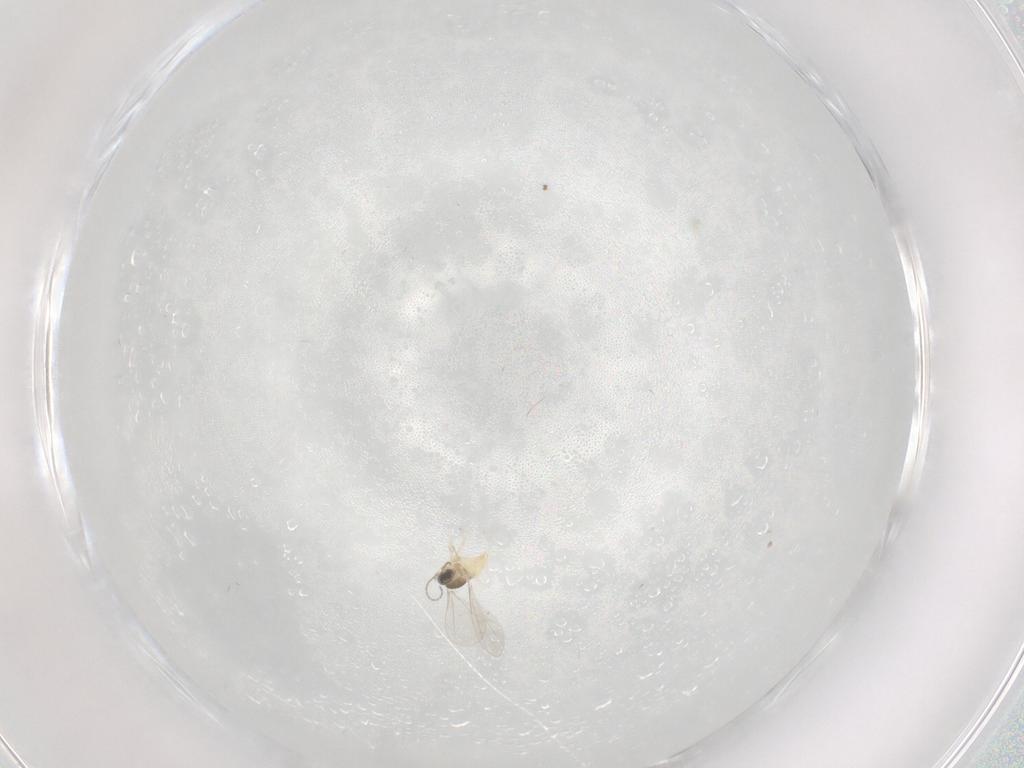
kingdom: Animalia
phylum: Arthropoda
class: Insecta
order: Diptera
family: Cecidomyiidae
